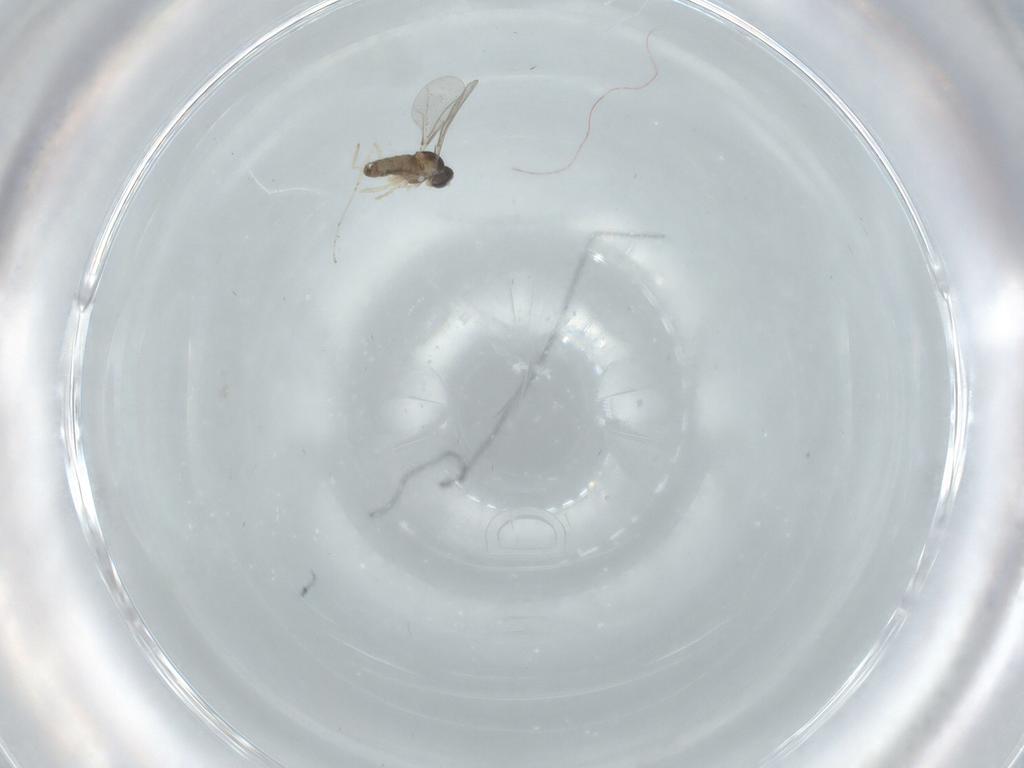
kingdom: Animalia
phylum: Arthropoda
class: Insecta
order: Diptera
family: Cecidomyiidae
